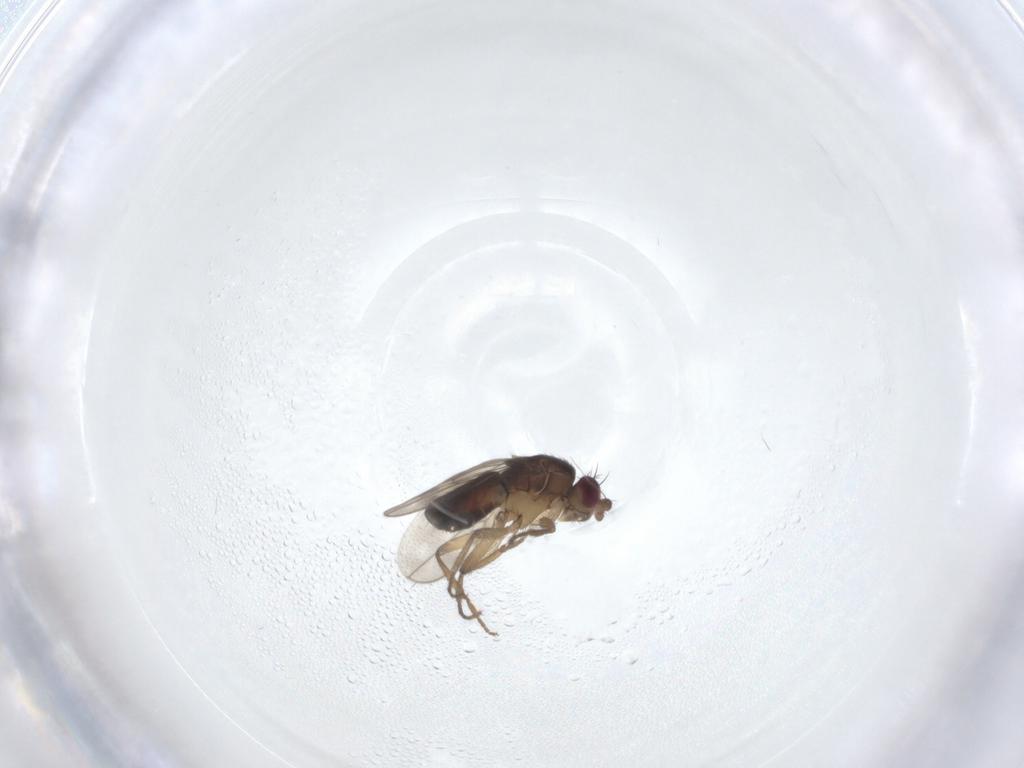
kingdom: Animalia
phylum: Arthropoda
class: Insecta
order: Diptera
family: Sphaeroceridae
